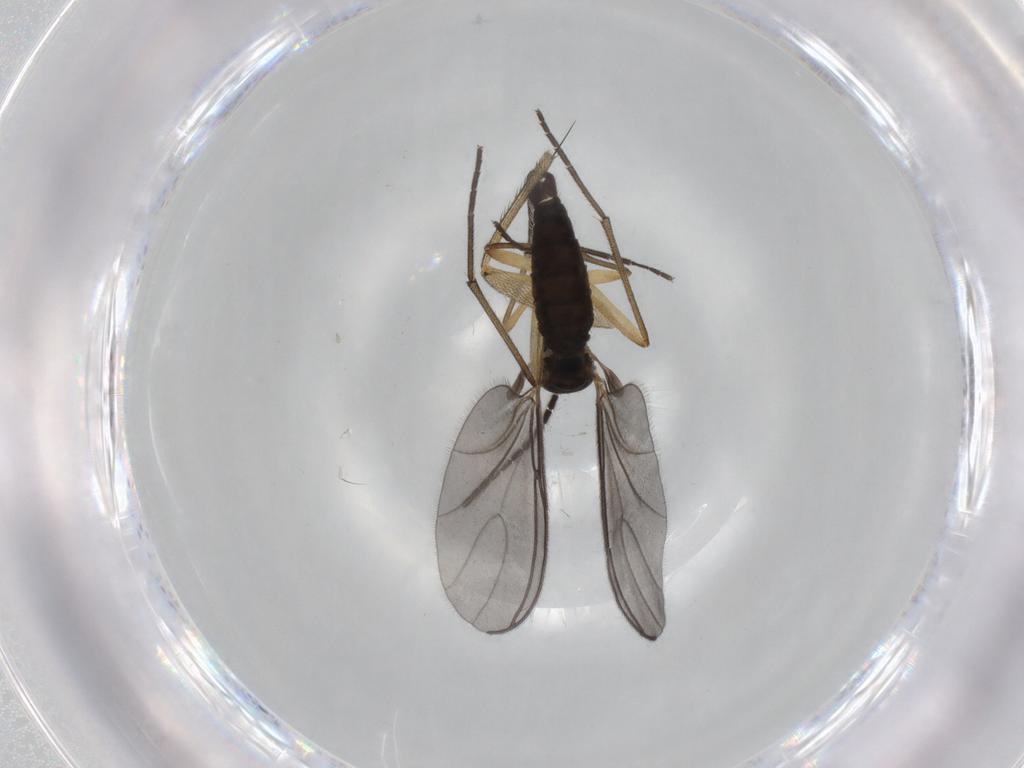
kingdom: Animalia
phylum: Arthropoda
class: Insecta
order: Diptera
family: Sciaridae
